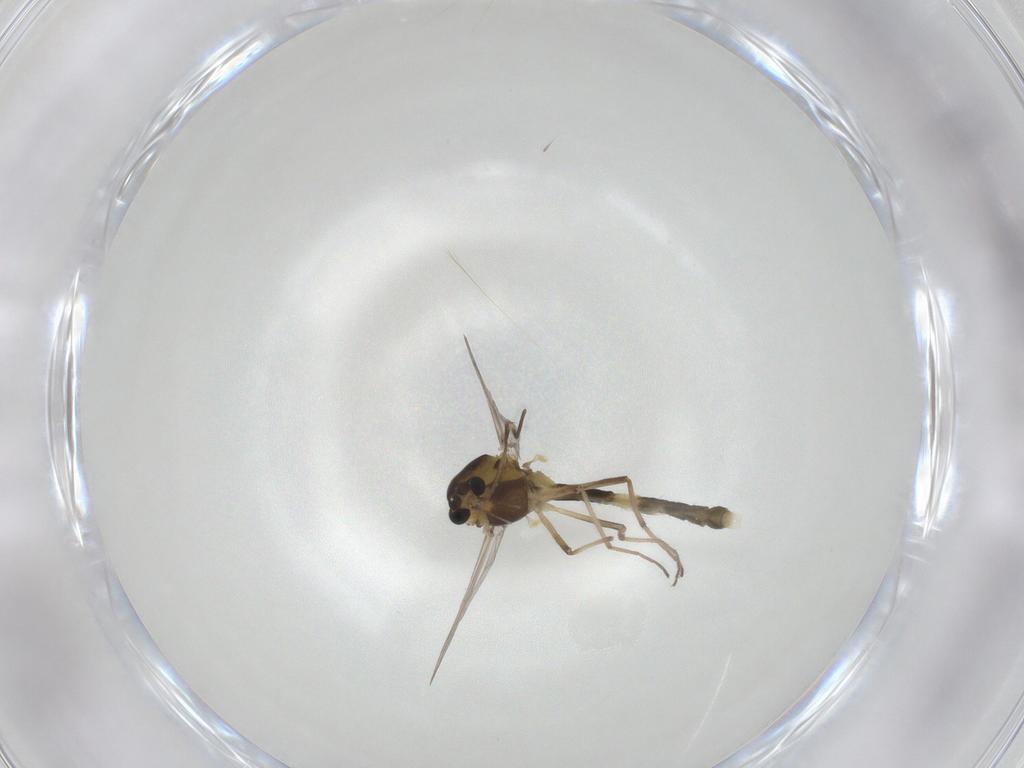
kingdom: Animalia
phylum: Arthropoda
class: Insecta
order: Diptera
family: Chironomidae
